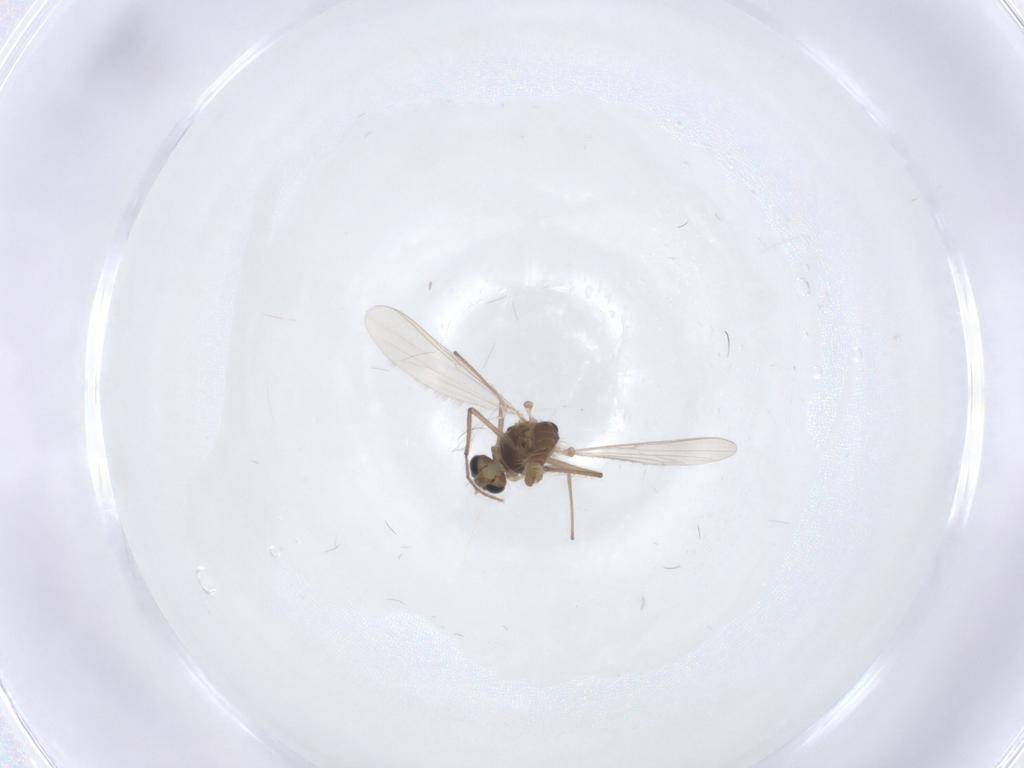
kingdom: Animalia
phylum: Arthropoda
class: Insecta
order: Diptera
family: Chironomidae
